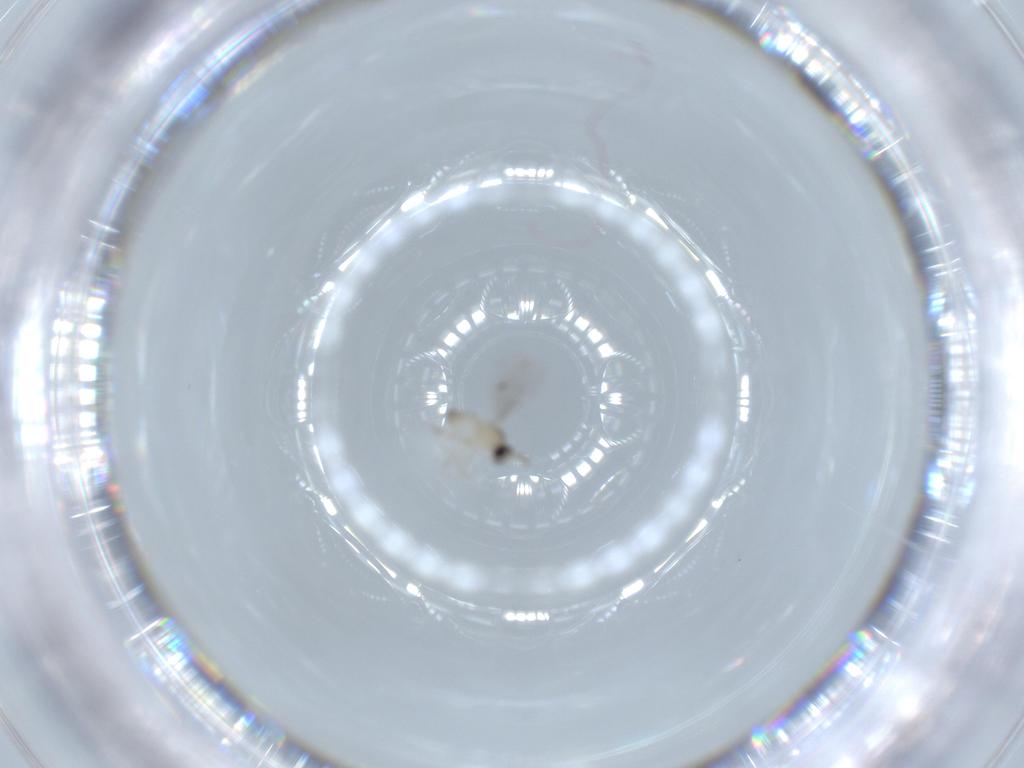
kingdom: Animalia
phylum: Arthropoda
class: Insecta
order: Diptera
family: Cecidomyiidae
